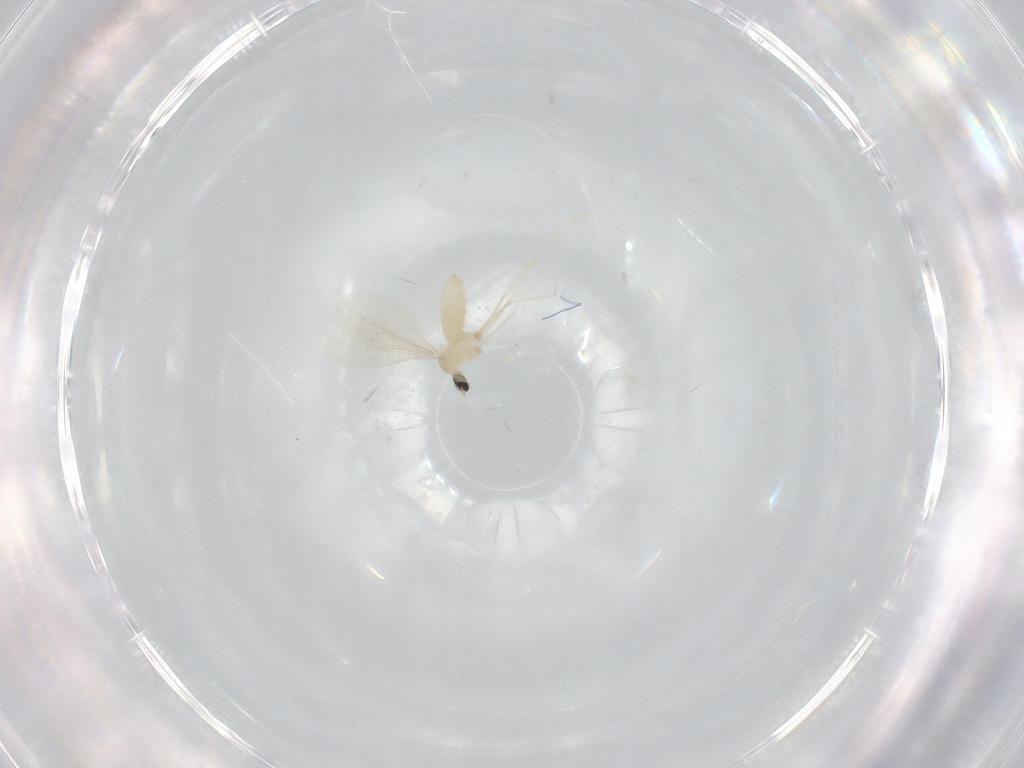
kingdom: Animalia
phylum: Arthropoda
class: Insecta
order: Diptera
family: Cecidomyiidae
